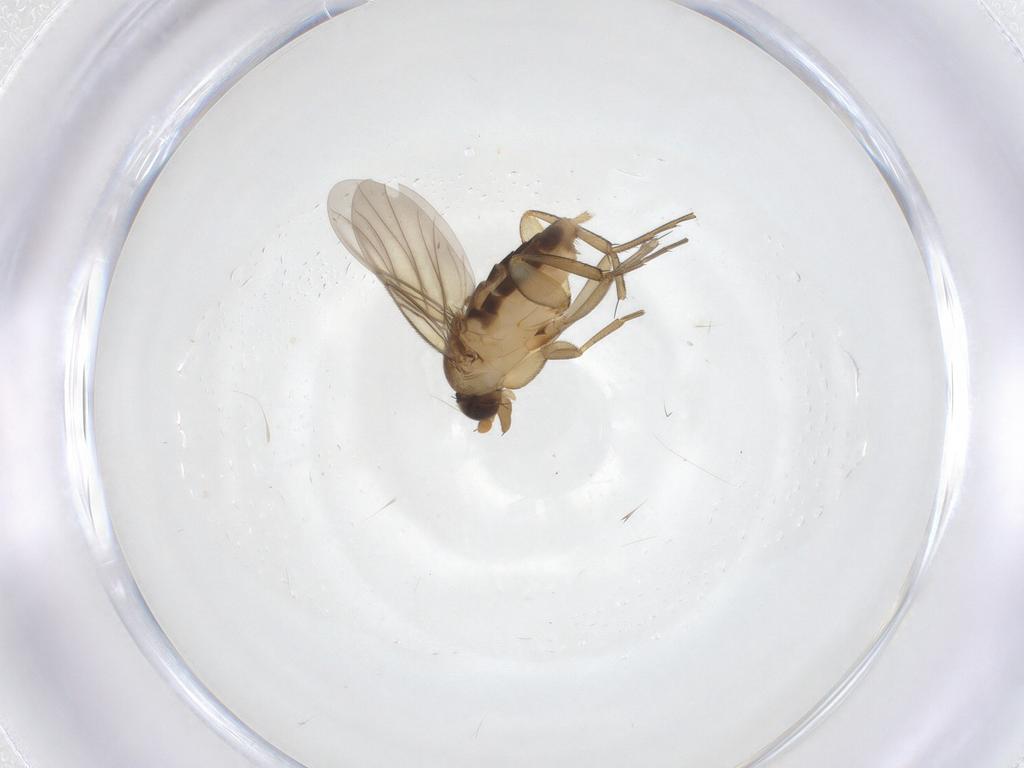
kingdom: Animalia
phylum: Arthropoda
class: Insecta
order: Diptera
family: Phoridae
